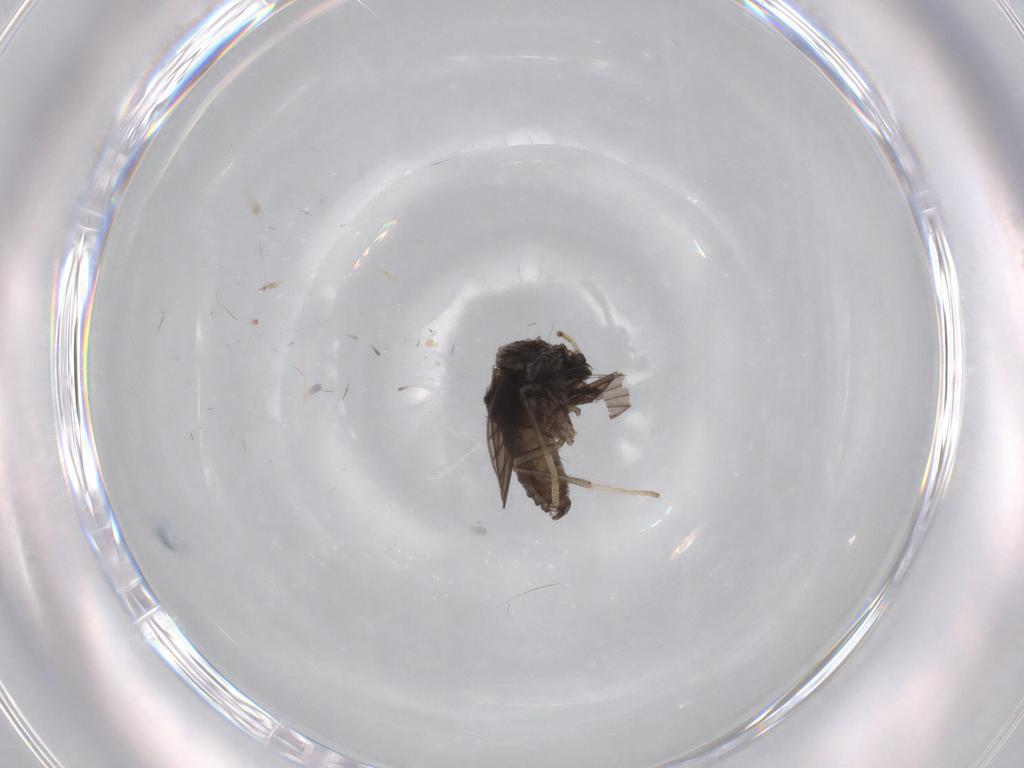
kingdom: Animalia
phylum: Arthropoda
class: Insecta
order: Diptera
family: Psychodidae
